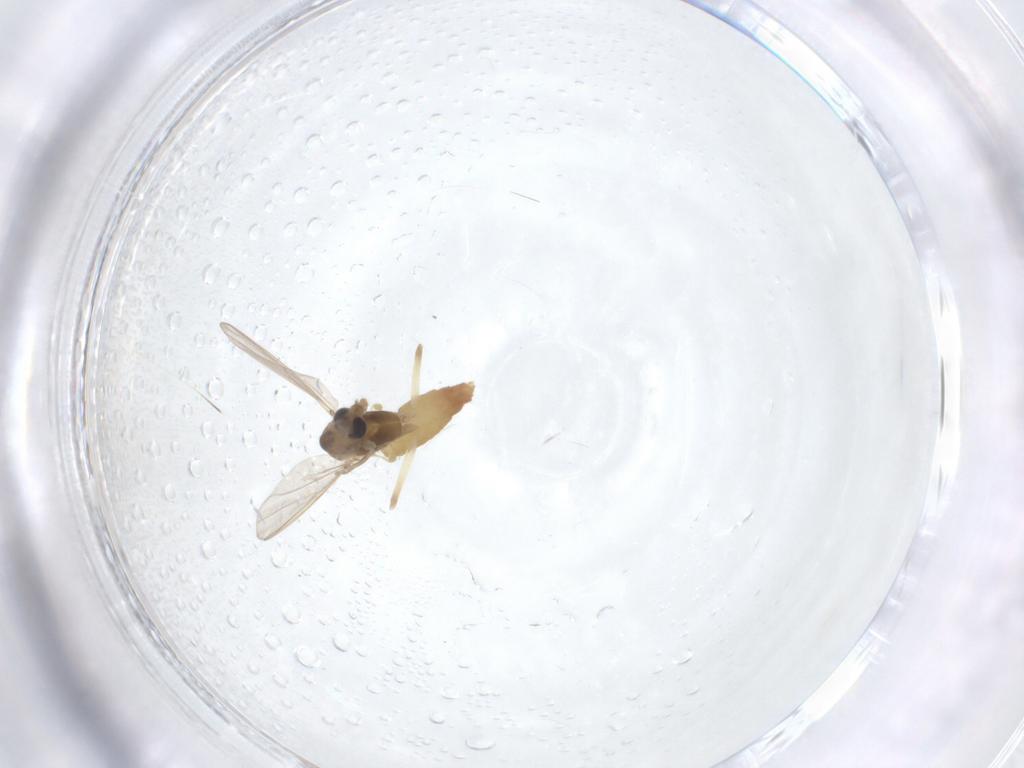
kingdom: Animalia
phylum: Arthropoda
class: Insecta
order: Diptera
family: Chironomidae
